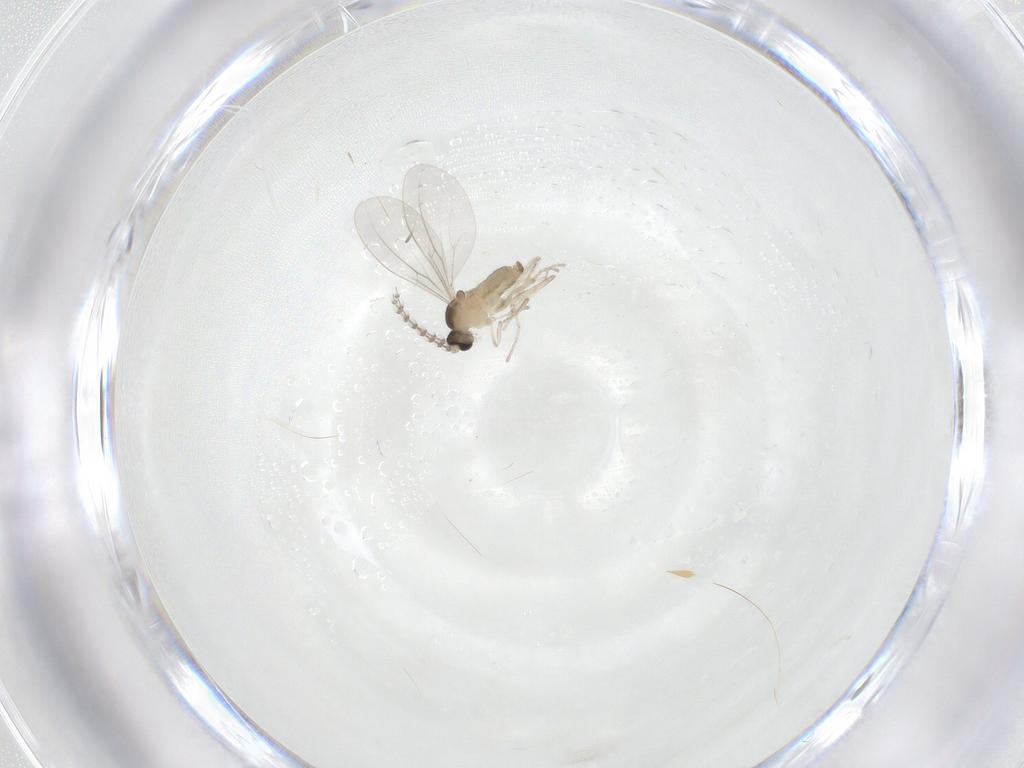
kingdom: Animalia
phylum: Arthropoda
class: Insecta
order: Diptera
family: Cecidomyiidae
